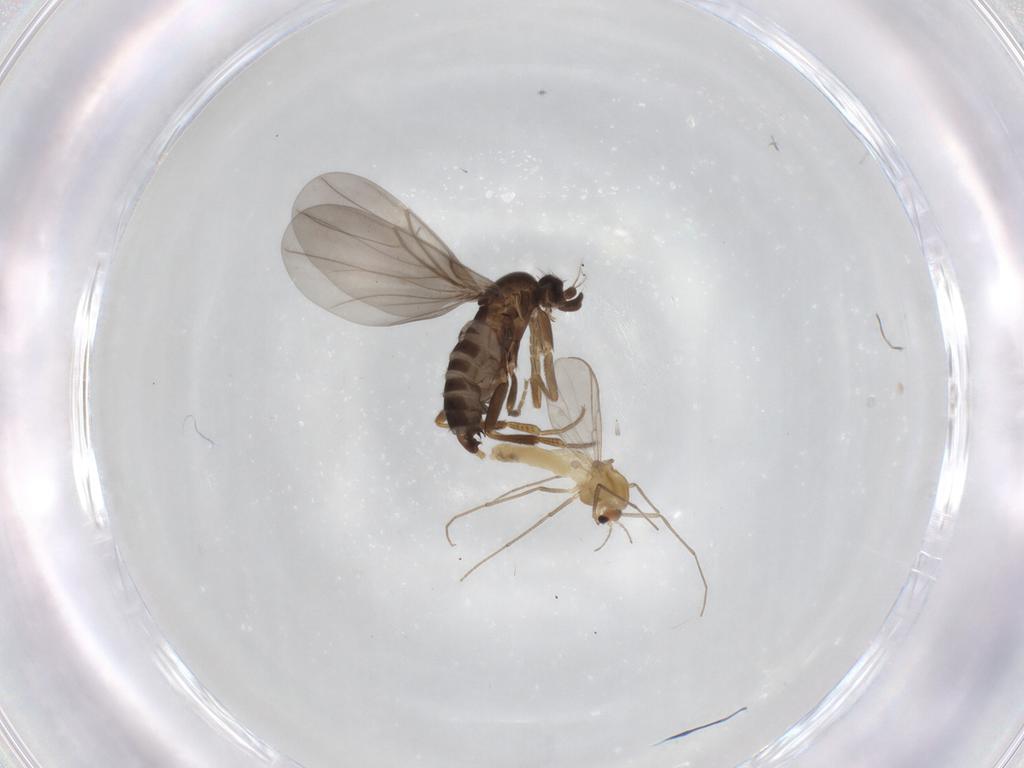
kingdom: Animalia
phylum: Arthropoda
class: Insecta
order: Diptera
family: Chironomidae
